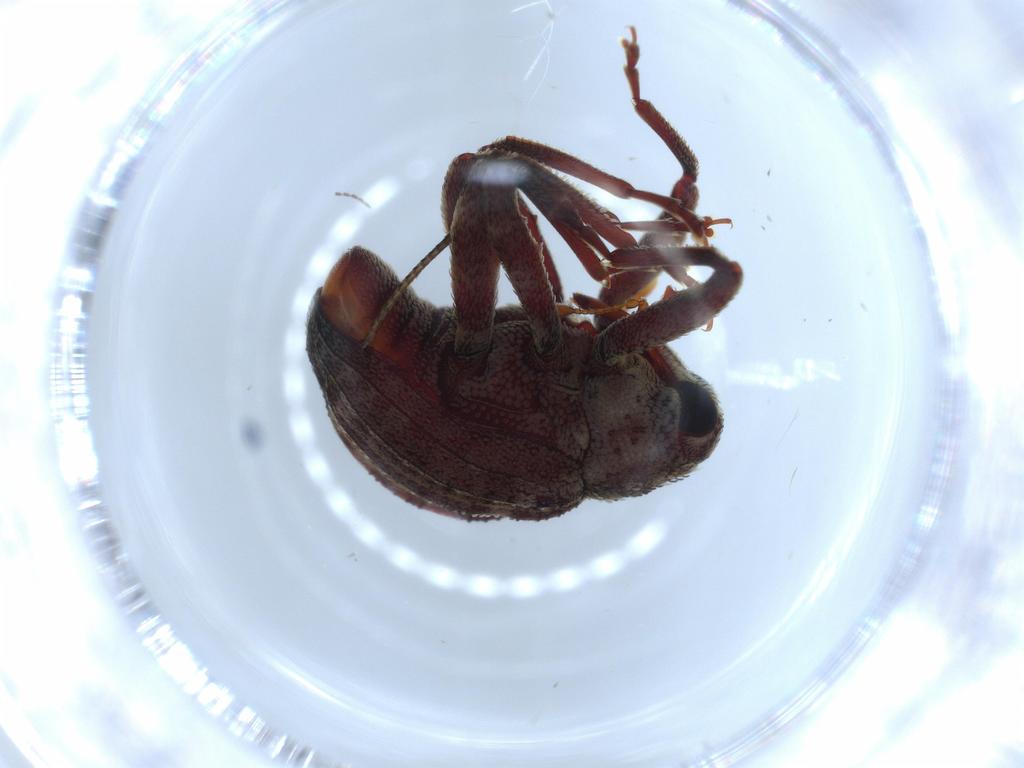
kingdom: Animalia
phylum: Arthropoda
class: Insecta
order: Coleoptera
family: Curculionidae
